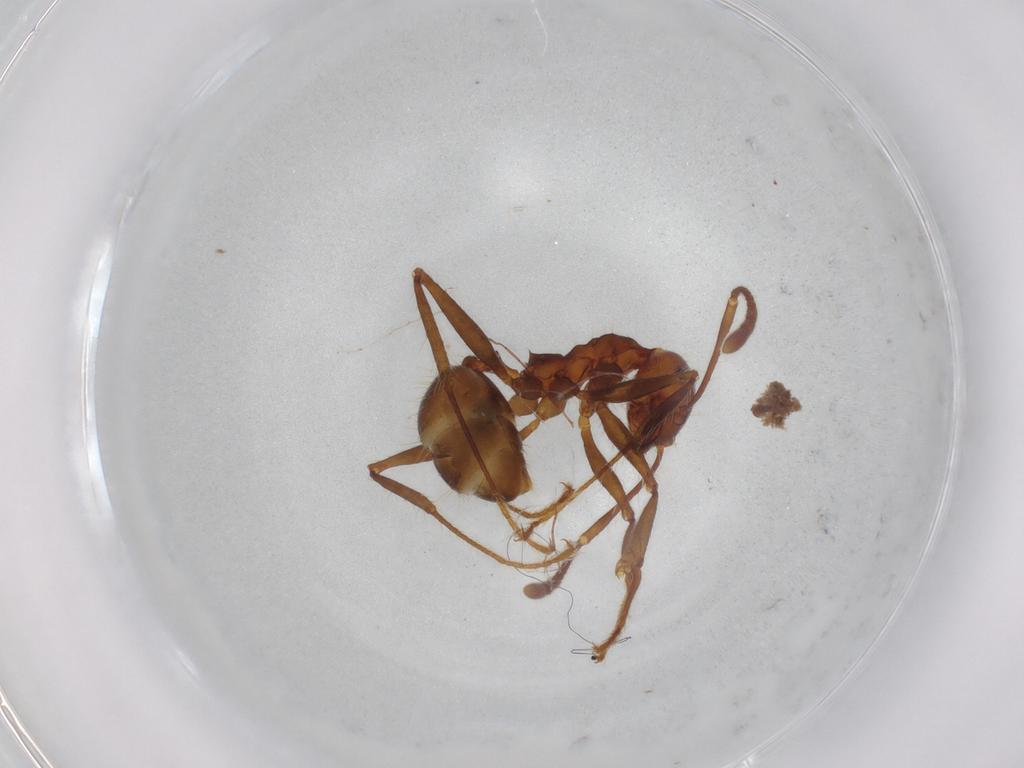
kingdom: Animalia
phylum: Arthropoda
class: Insecta
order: Hymenoptera
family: Formicidae
